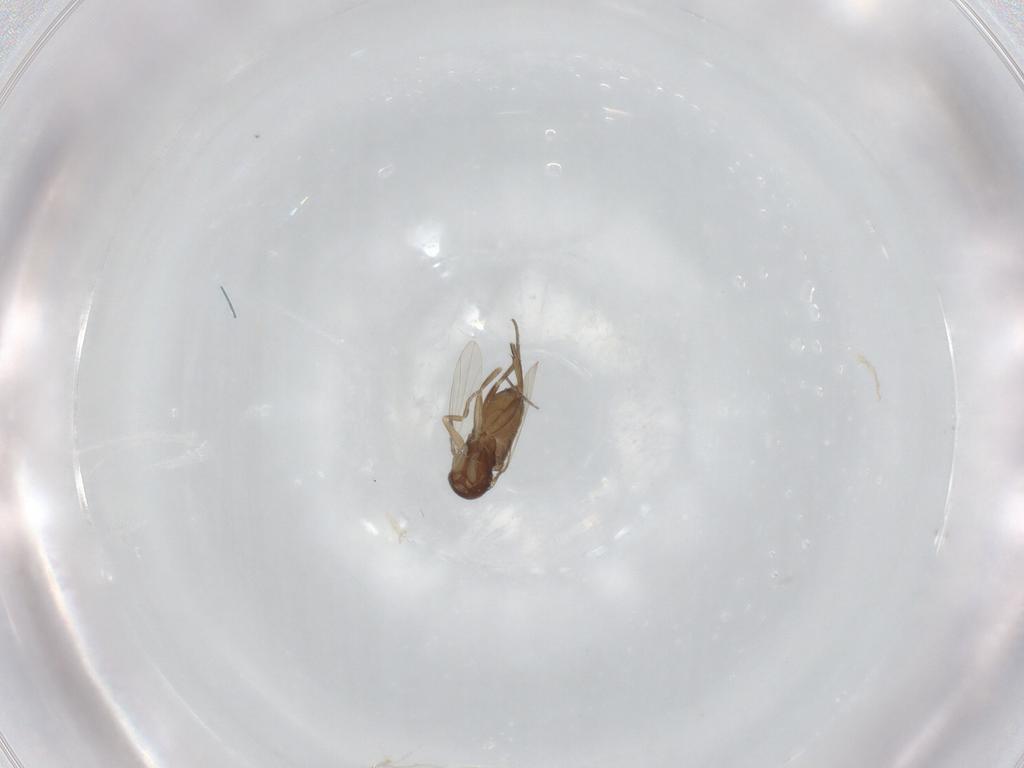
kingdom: Animalia
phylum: Arthropoda
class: Insecta
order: Diptera
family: Phoridae
